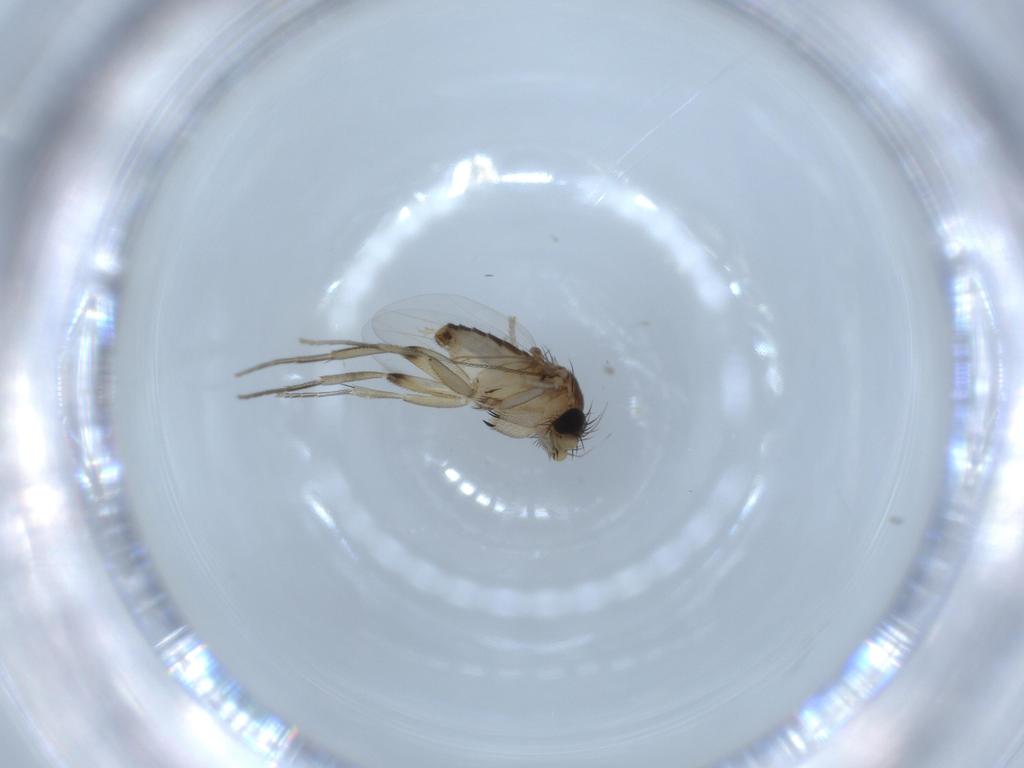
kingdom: Animalia
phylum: Arthropoda
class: Insecta
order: Diptera
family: Phoridae
